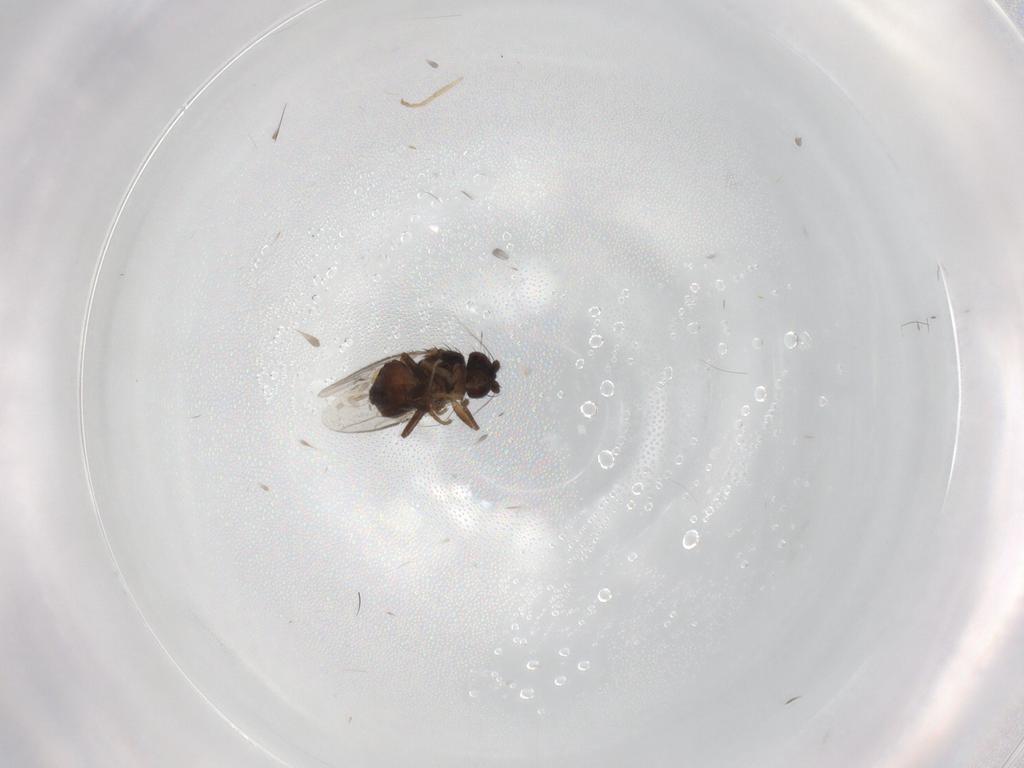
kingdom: Animalia
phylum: Arthropoda
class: Insecta
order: Diptera
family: Sphaeroceridae
